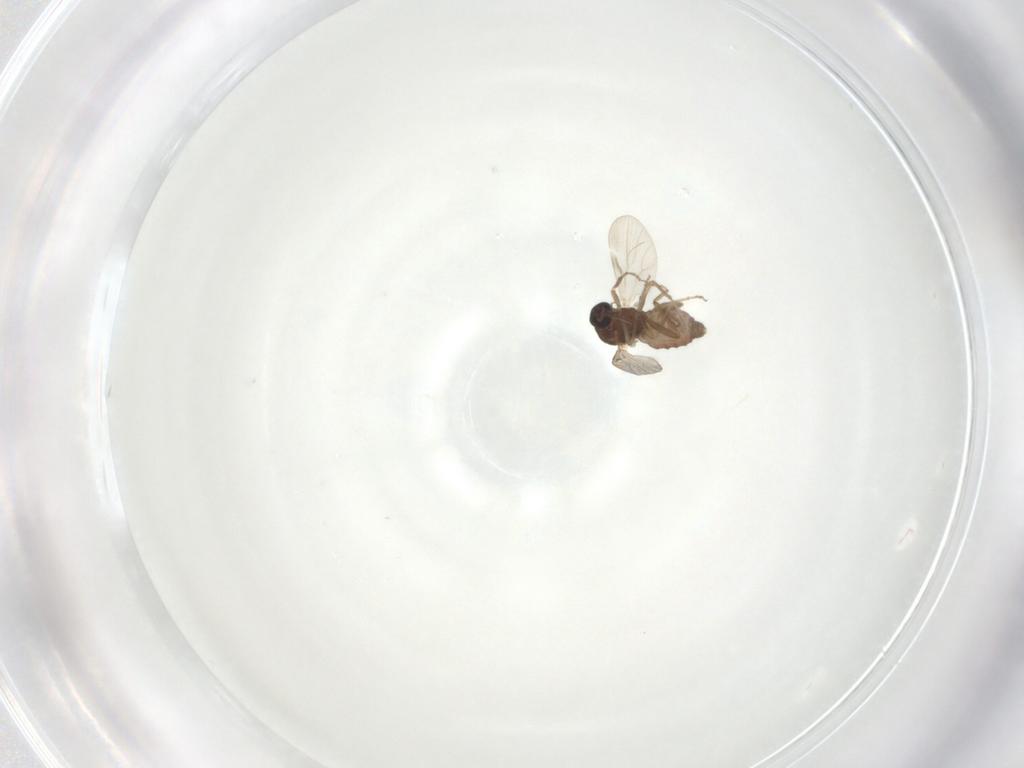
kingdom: Animalia
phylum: Arthropoda
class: Insecta
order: Diptera
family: Ceratopogonidae
